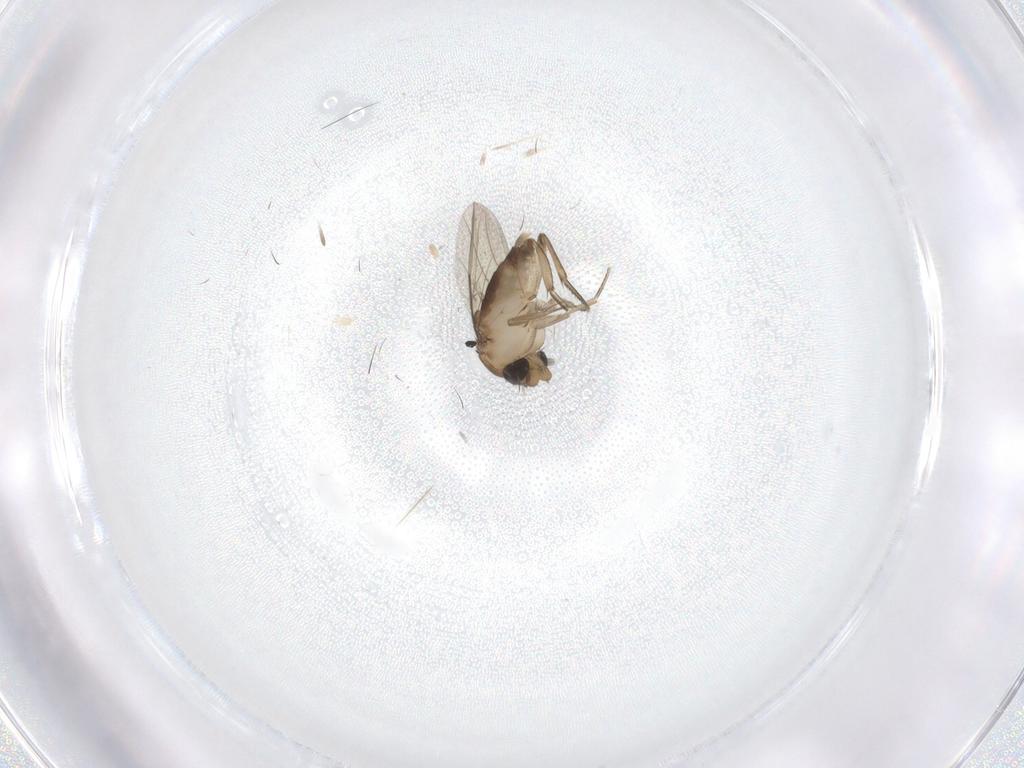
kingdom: Animalia
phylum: Arthropoda
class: Insecta
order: Diptera
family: Phoridae
